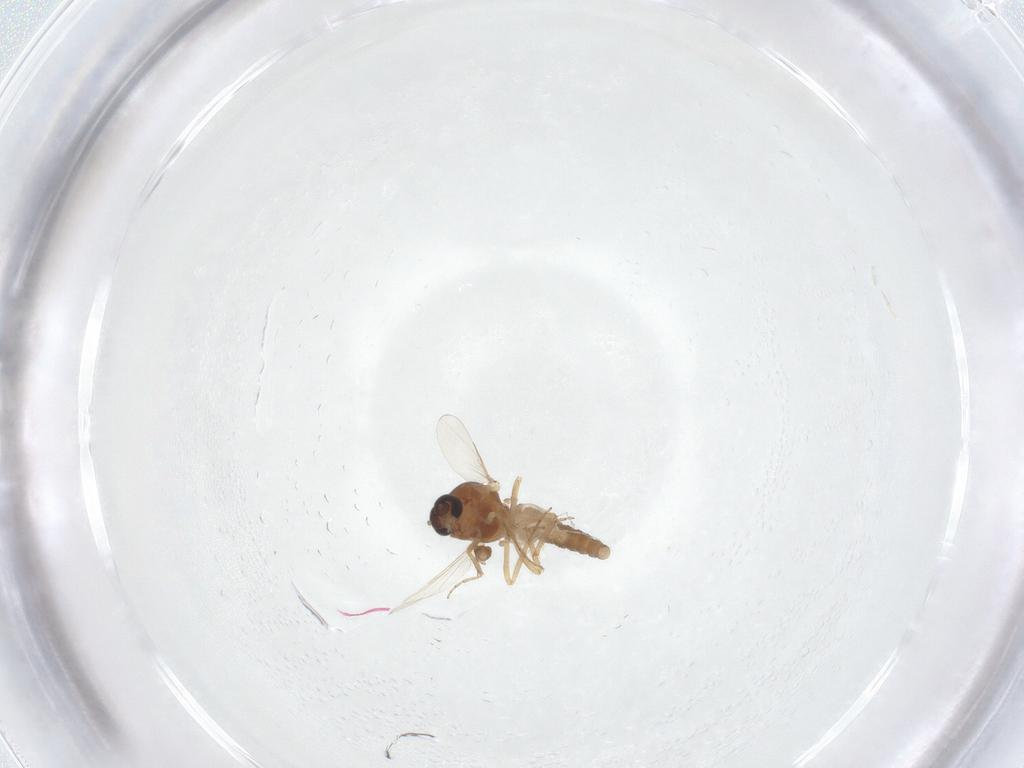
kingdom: Animalia
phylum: Arthropoda
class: Insecta
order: Diptera
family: Ceratopogonidae
